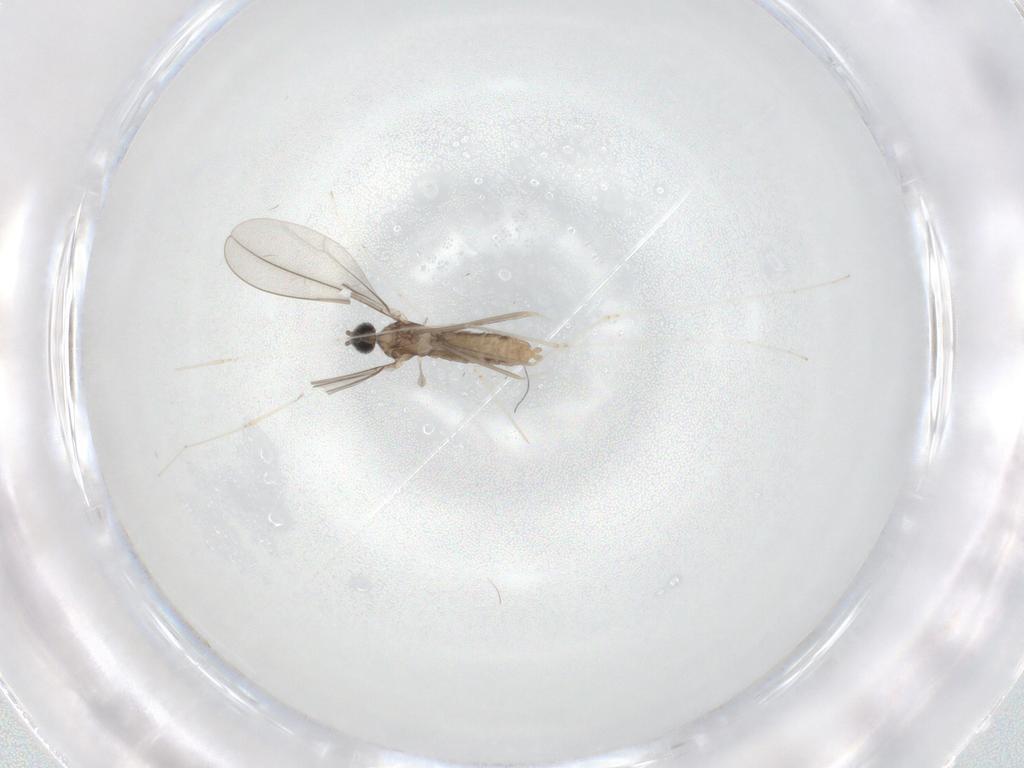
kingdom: Animalia
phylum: Arthropoda
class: Insecta
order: Diptera
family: Cecidomyiidae
